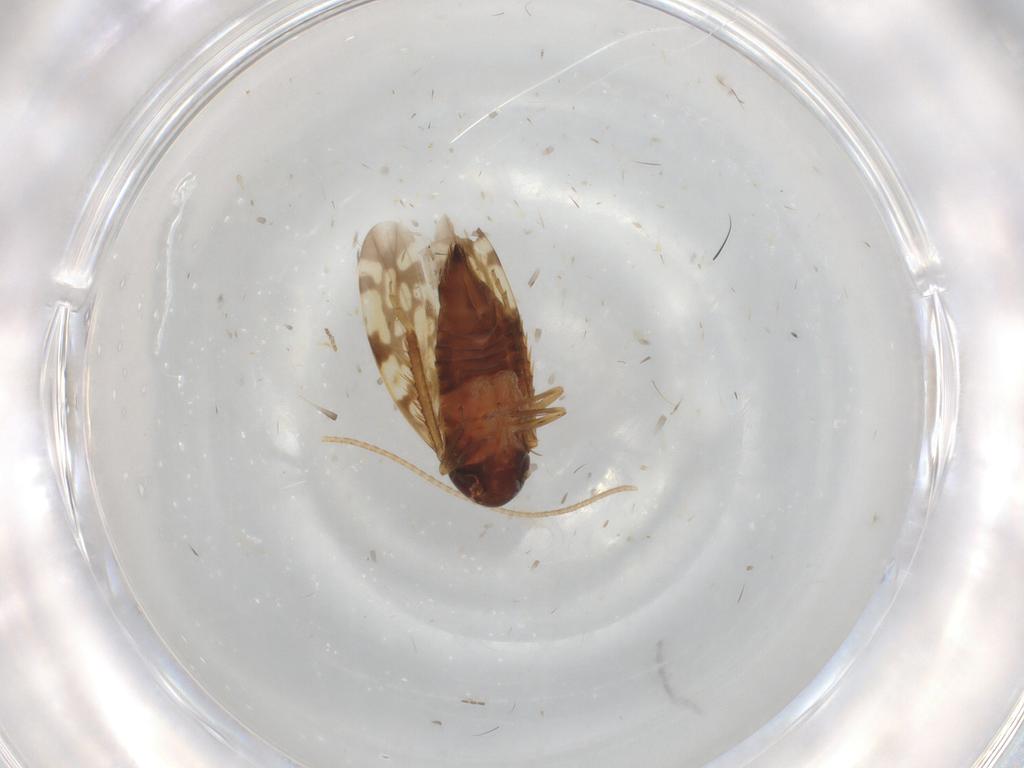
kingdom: Animalia
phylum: Arthropoda
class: Insecta
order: Hemiptera
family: Cicadellidae
